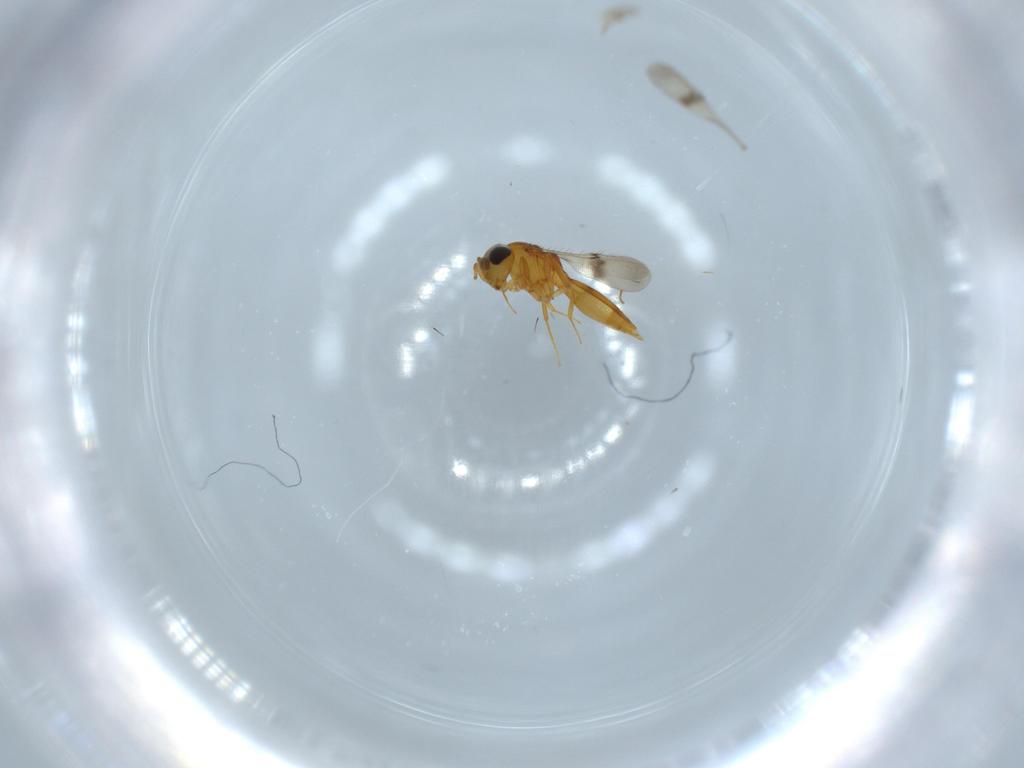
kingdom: Animalia
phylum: Arthropoda
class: Insecta
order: Hymenoptera
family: Scelionidae
